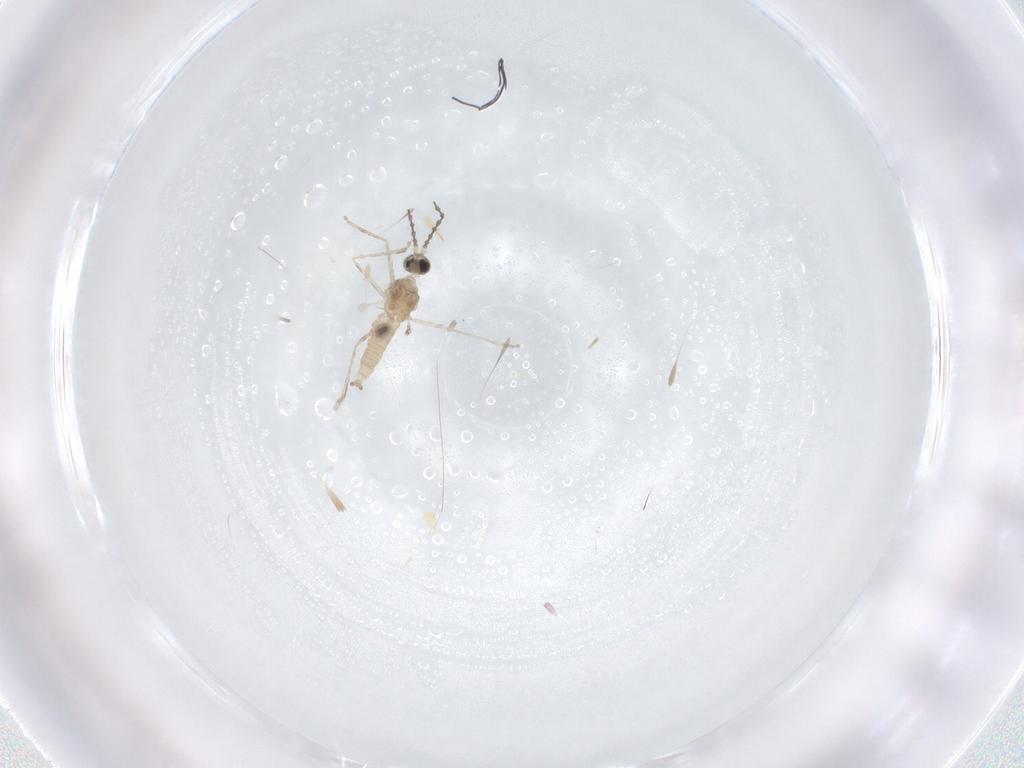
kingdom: Animalia
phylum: Arthropoda
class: Insecta
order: Diptera
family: Cecidomyiidae
